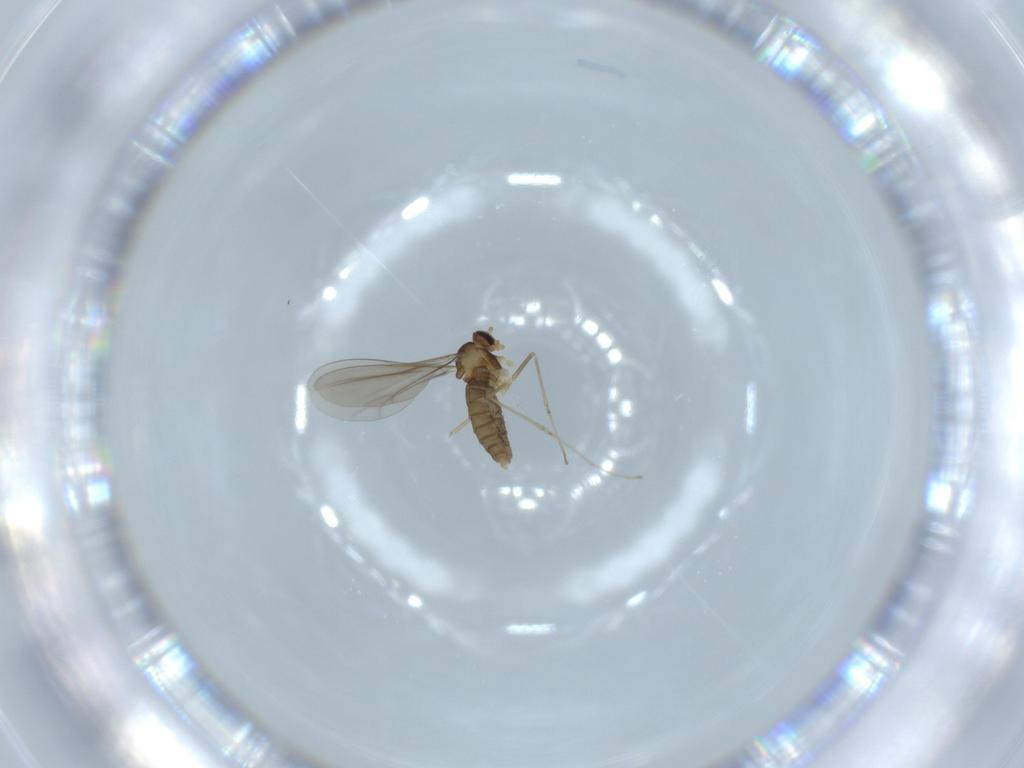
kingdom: Animalia
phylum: Arthropoda
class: Insecta
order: Diptera
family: Cecidomyiidae
